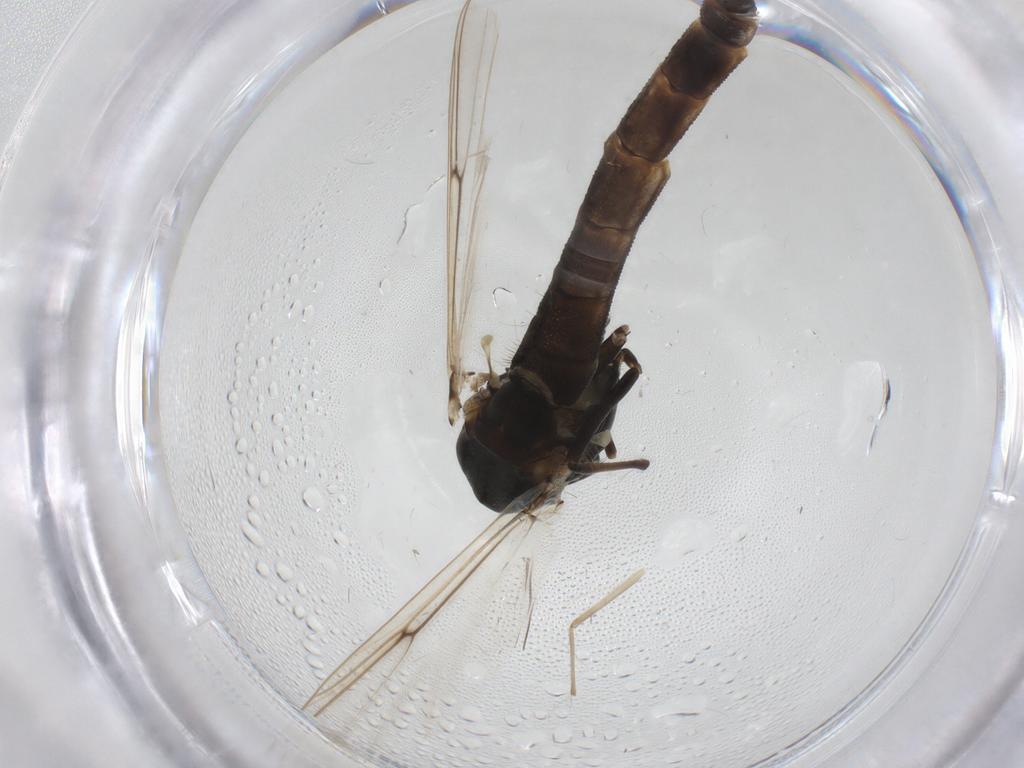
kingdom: Animalia
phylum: Arthropoda
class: Insecta
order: Diptera
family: Chironomidae
